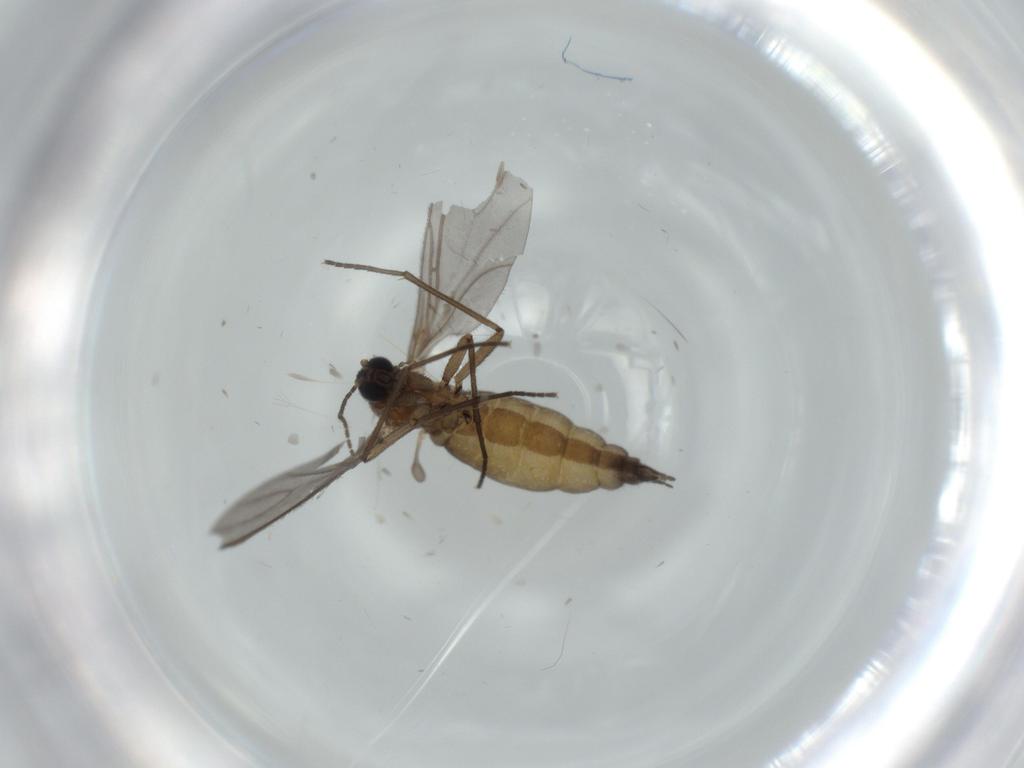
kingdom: Animalia
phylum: Arthropoda
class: Insecta
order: Diptera
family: Sciaridae
